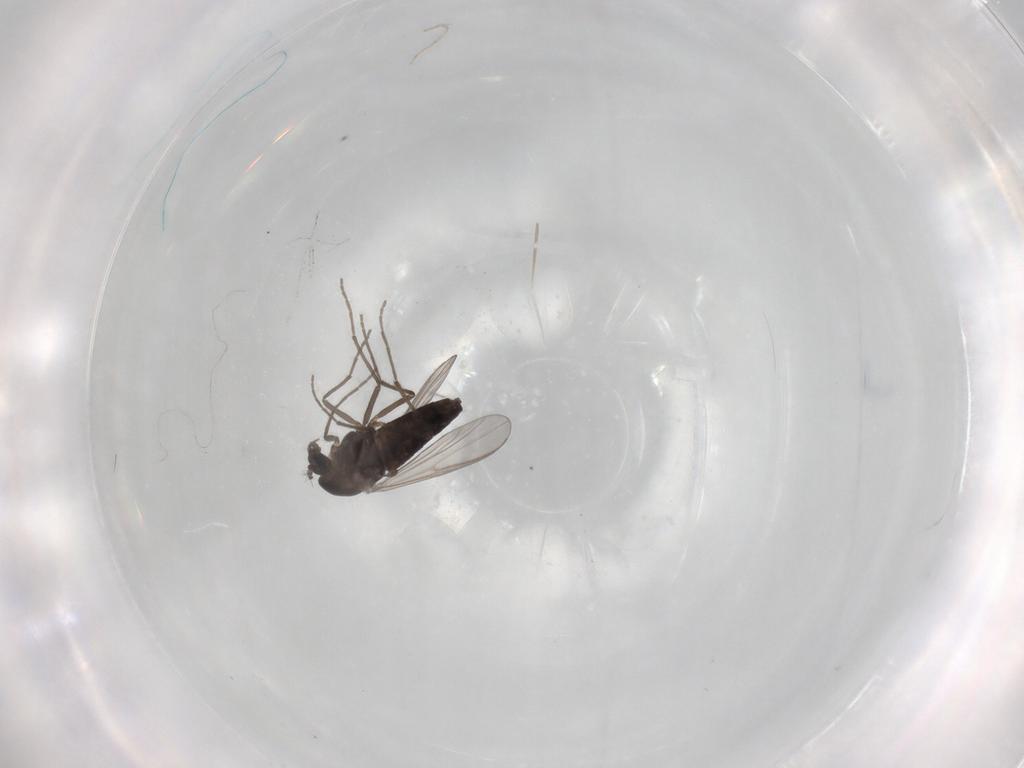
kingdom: Animalia
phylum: Arthropoda
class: Insecta
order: Diptera
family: Chironomidae
